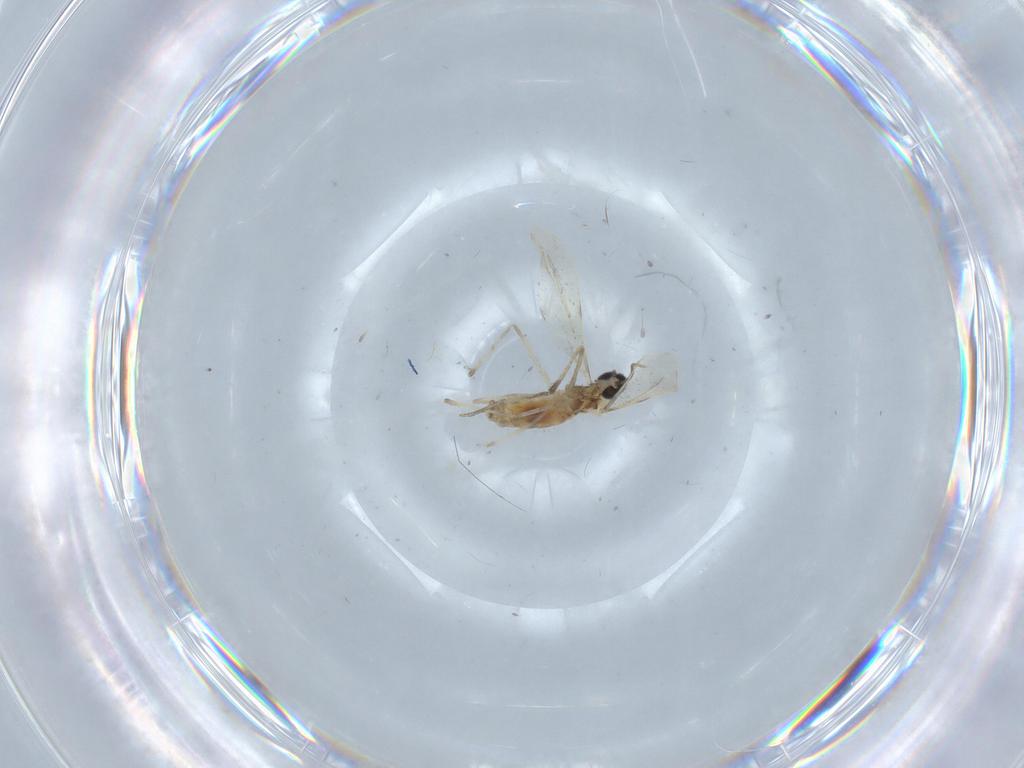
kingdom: Animalia
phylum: Arthropoda
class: Insecta
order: Diptera
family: Cecidomyiidae
